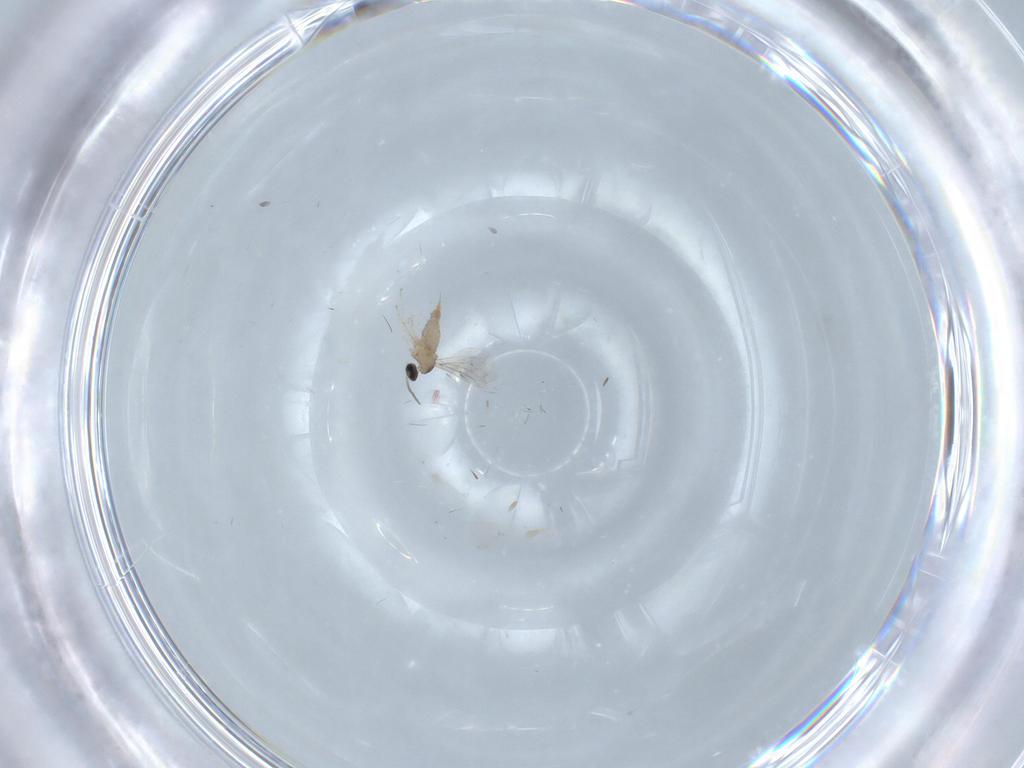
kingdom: Animalia
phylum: Arthropoda
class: Insecta
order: Diptera
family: Cecidomyiidae
